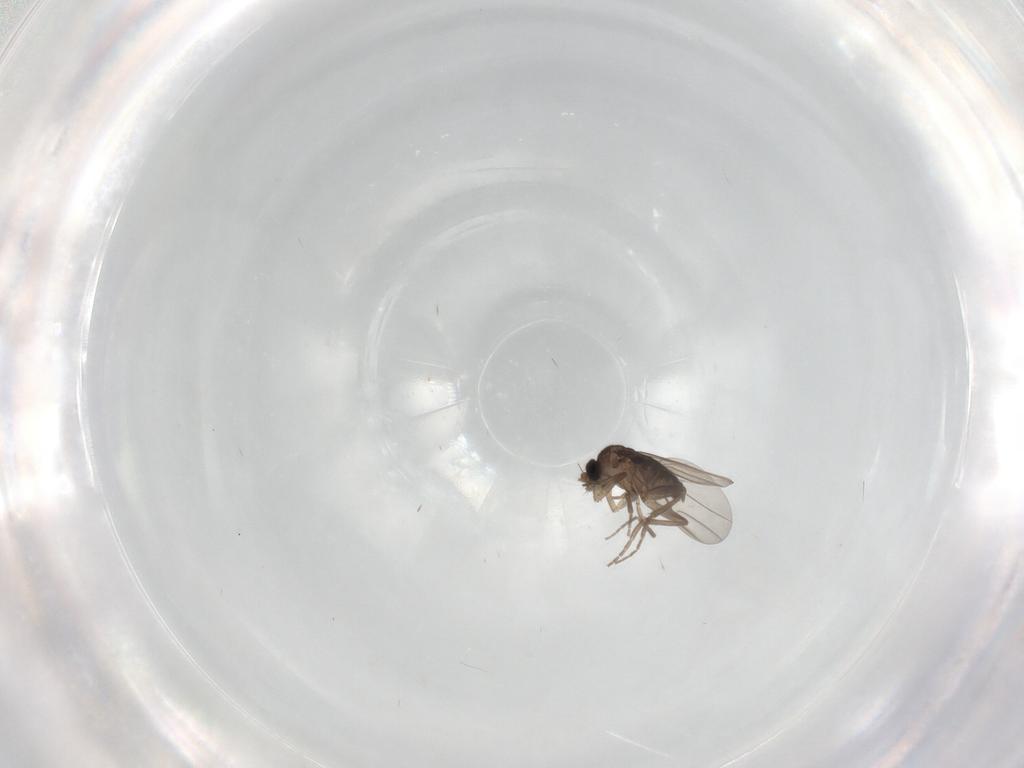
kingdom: Animalia
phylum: Arthropoda
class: Insecta
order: Diptera
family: Phoridae
